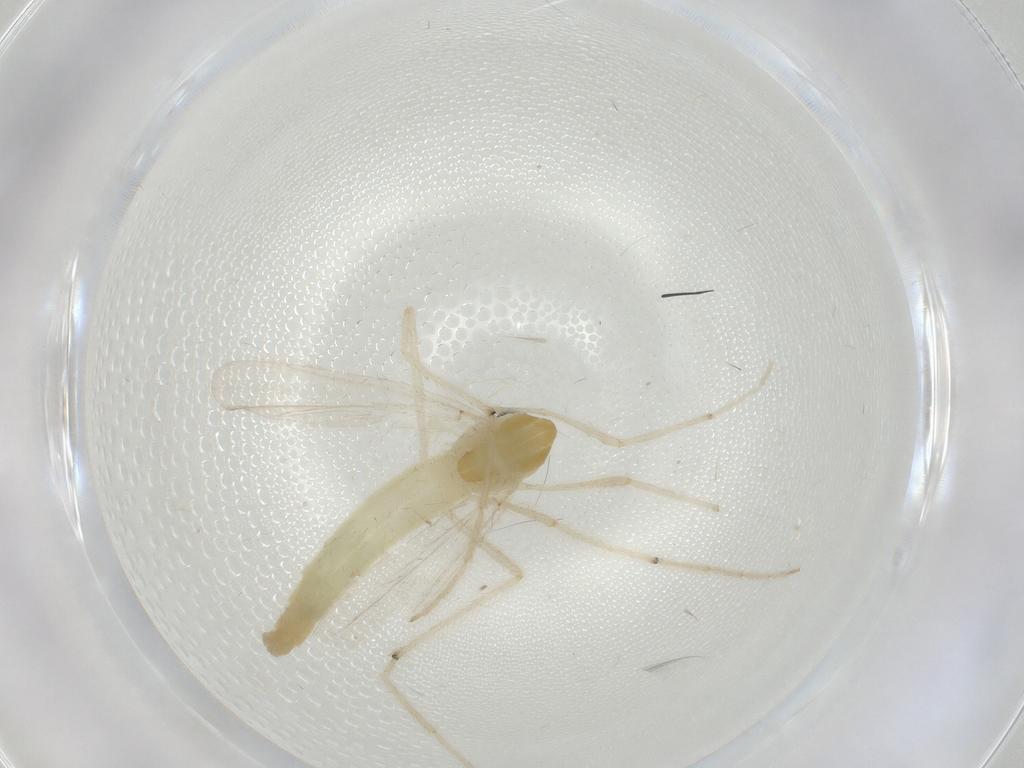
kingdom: Animalia
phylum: Arthropoda
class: Insecta
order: Diptera
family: Chironomidae
